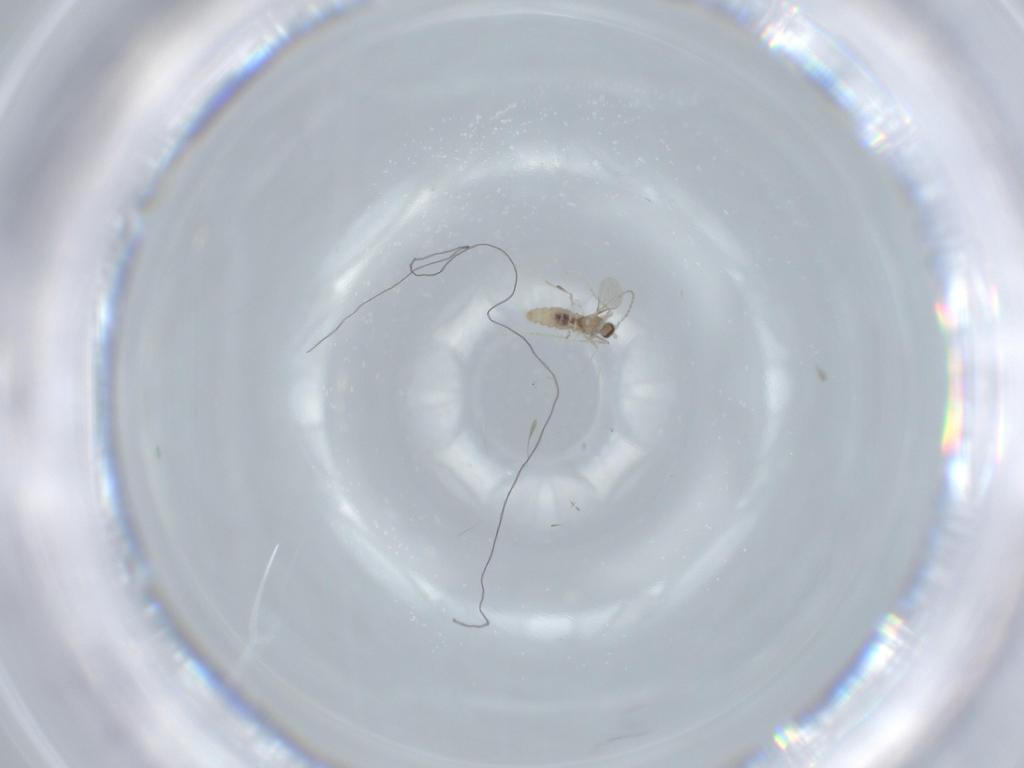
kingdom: Animalia
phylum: Arthropoda
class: Insecta
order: Diptera
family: Cecidomyiidae
